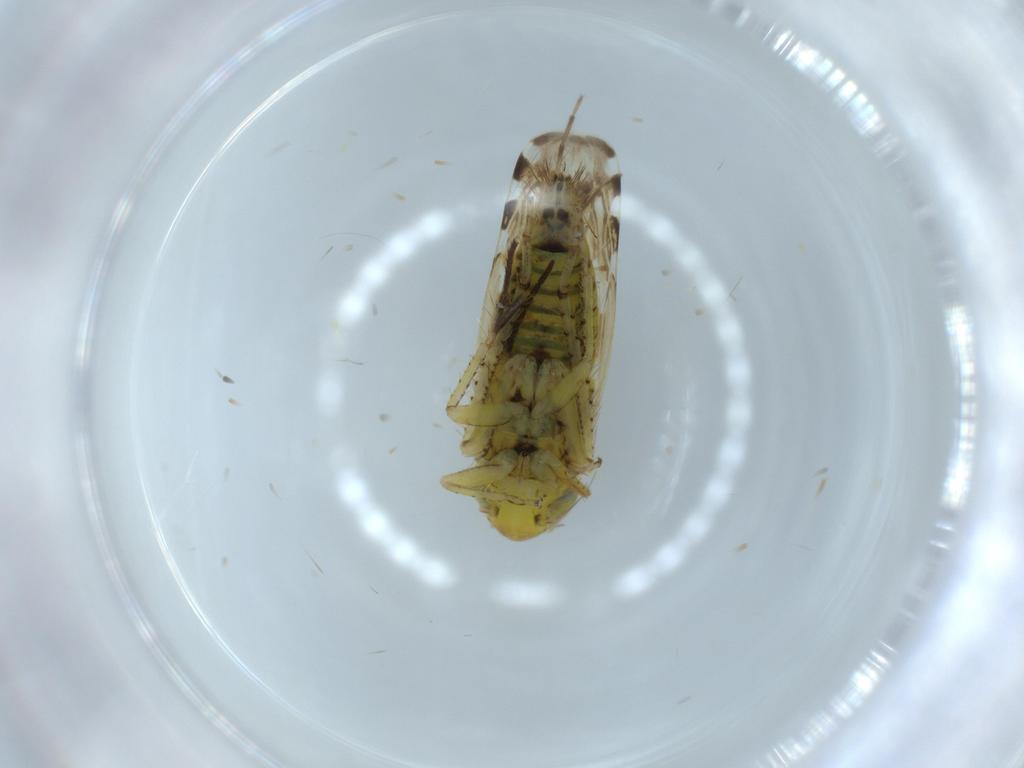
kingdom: Animalia
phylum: Arthropoda
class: Insecta
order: Hemiptera
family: Cicadellidae
